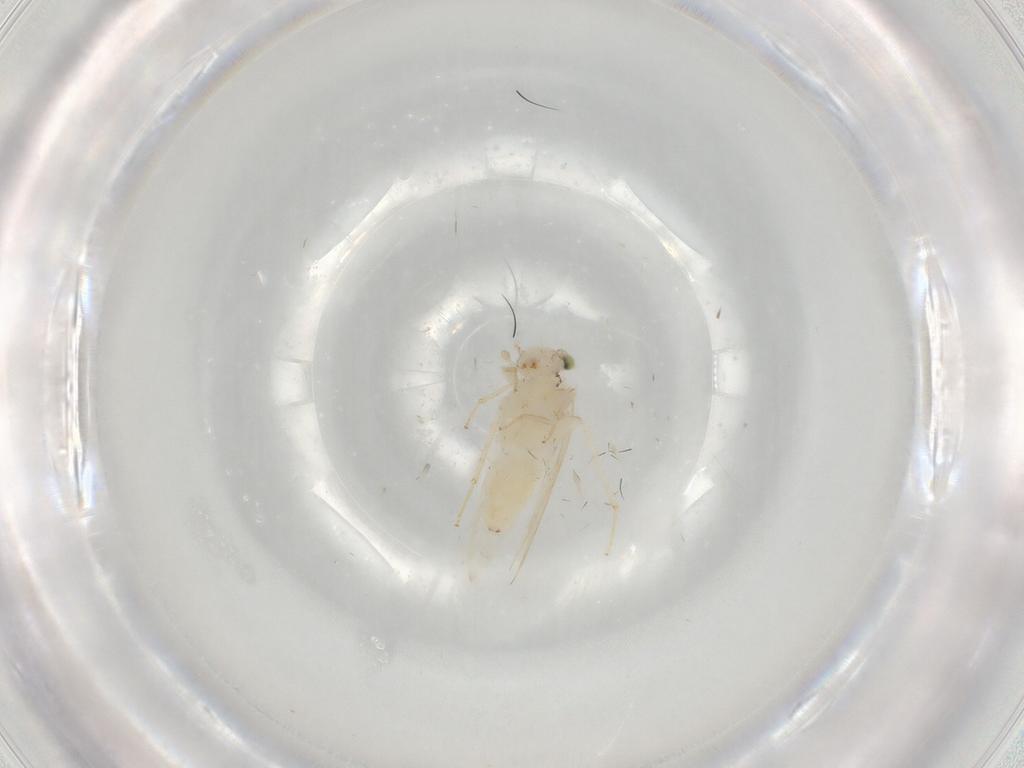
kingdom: Animalia
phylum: Arthropoda
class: Insecta
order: Psocodea
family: Lepidopsocidae
